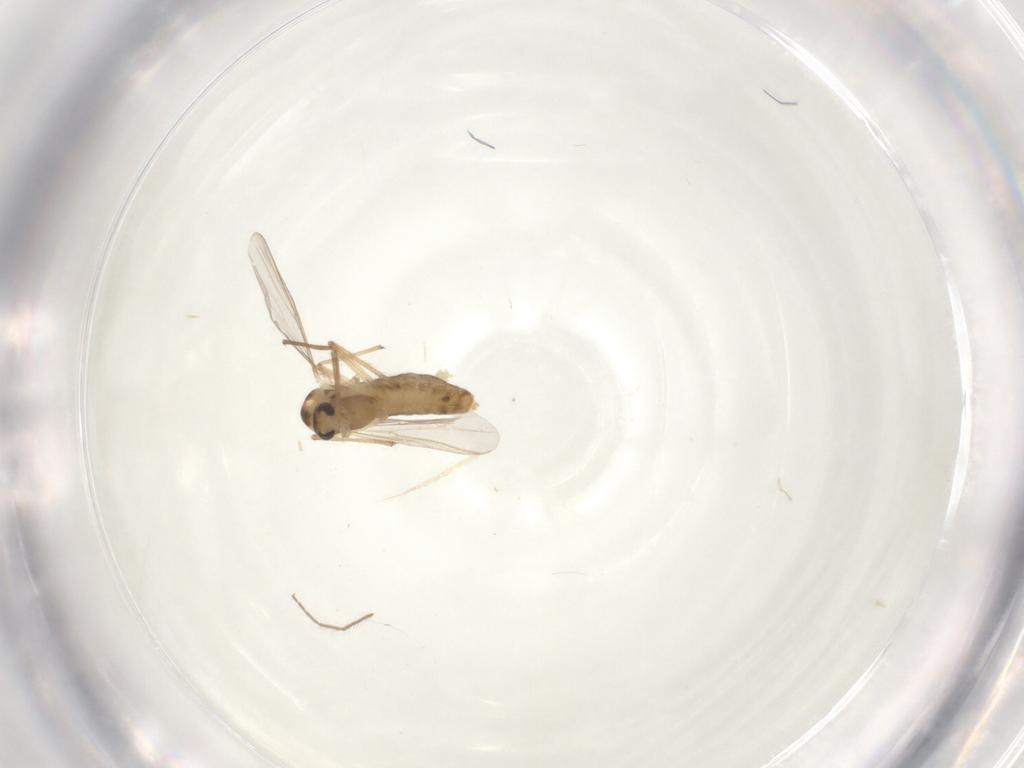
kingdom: Animalia
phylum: Arthropoda
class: Insecta
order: Diptera
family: Chironomidae
